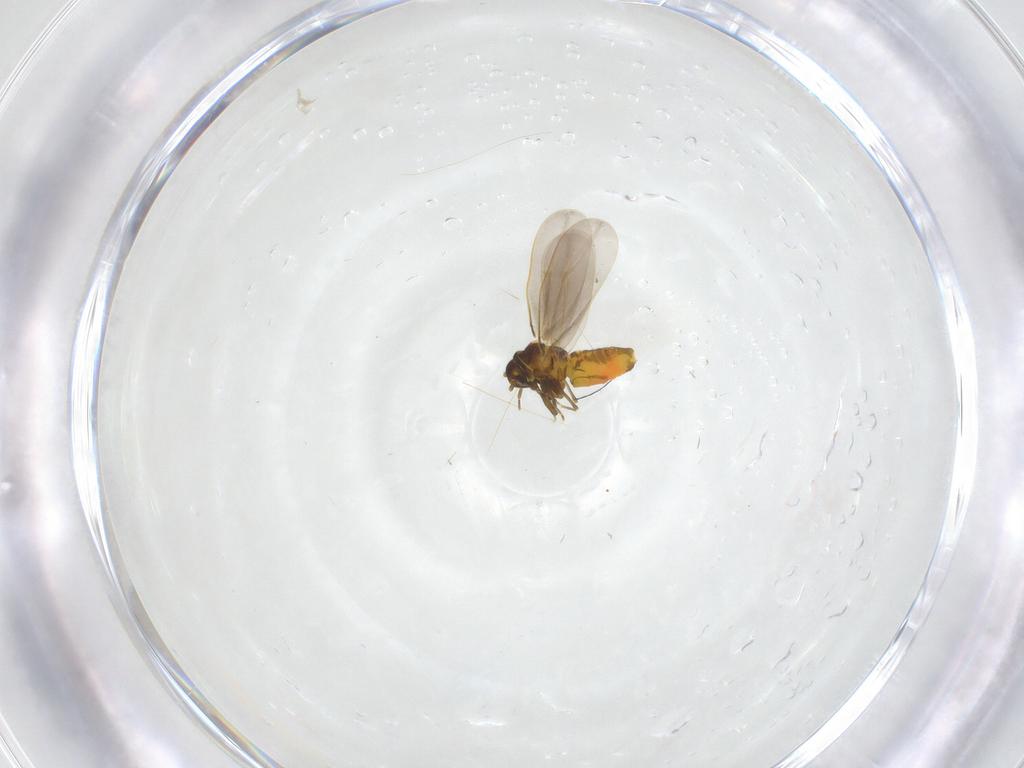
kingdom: Animalia
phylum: Arthropoda
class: Insecta
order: Hemiptera
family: Aleyrodidae
